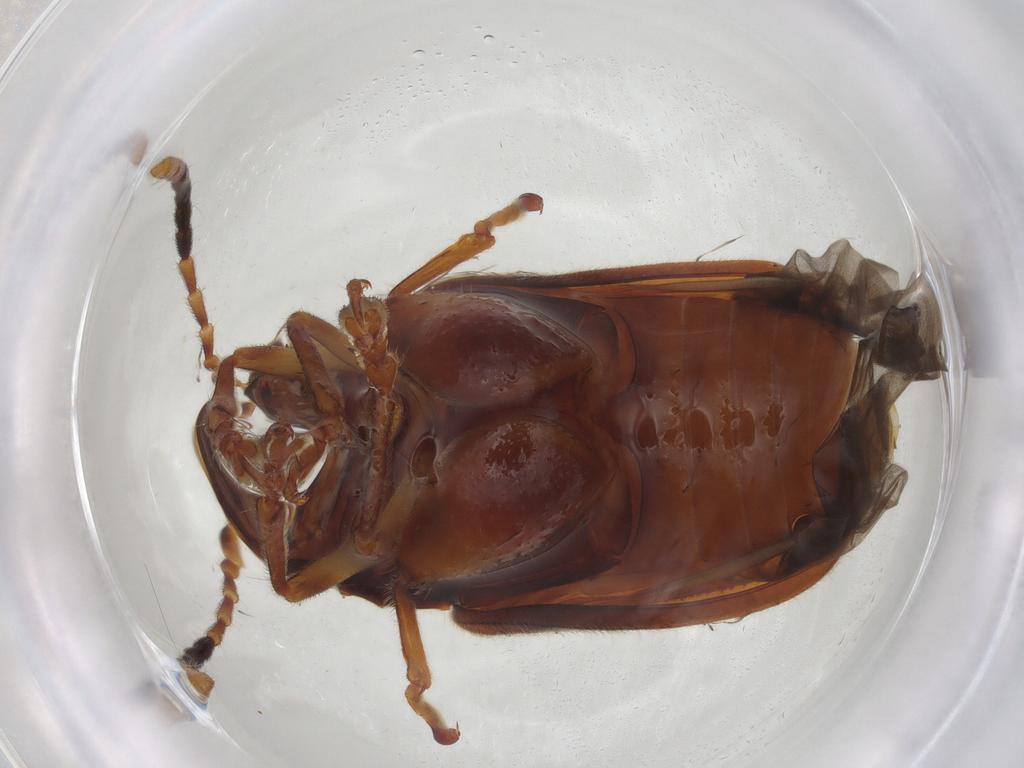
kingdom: Animalia
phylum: Arthropoda
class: Insecta
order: Coleoptera
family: Chrysomelidae
